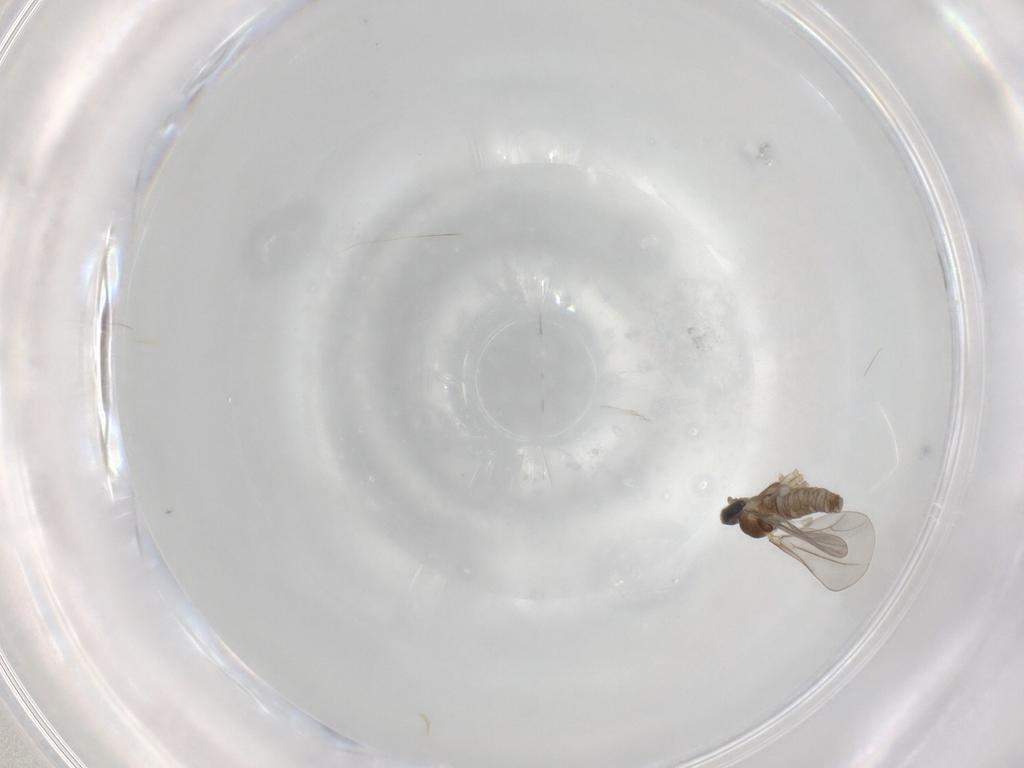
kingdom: Animalia
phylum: Arthropoda
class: Insecta
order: Diptera
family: Cecidomyiidae
